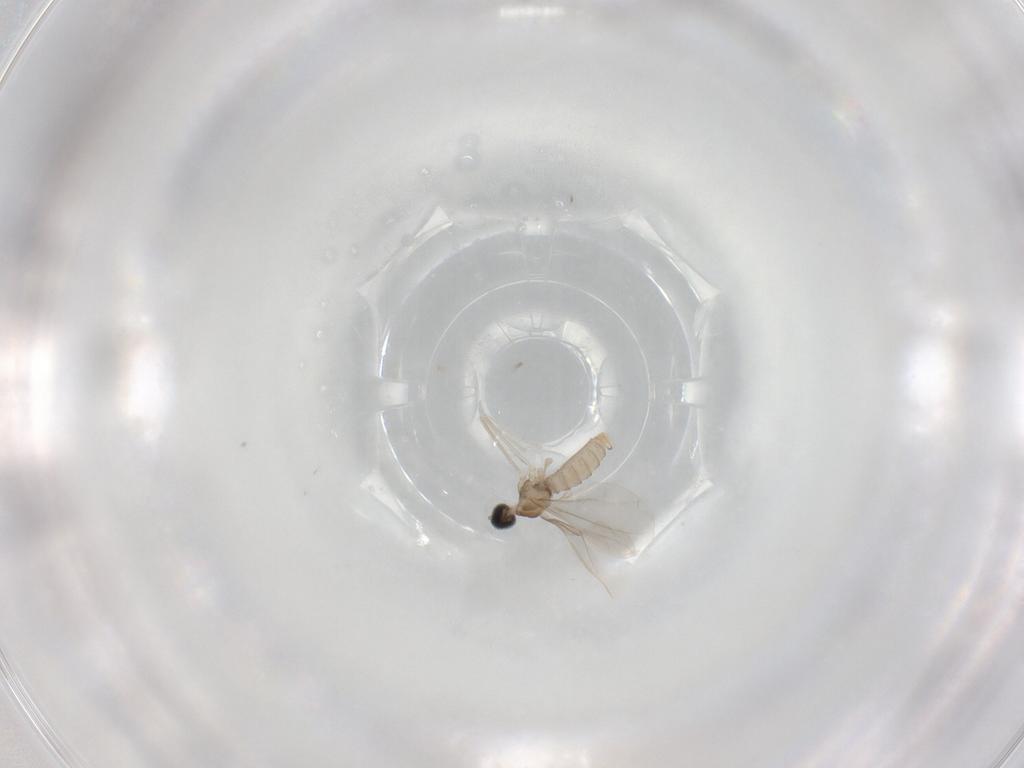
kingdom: Animalia
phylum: Arthropoda
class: Insecta
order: Diptera
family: Cecidomyiidae
